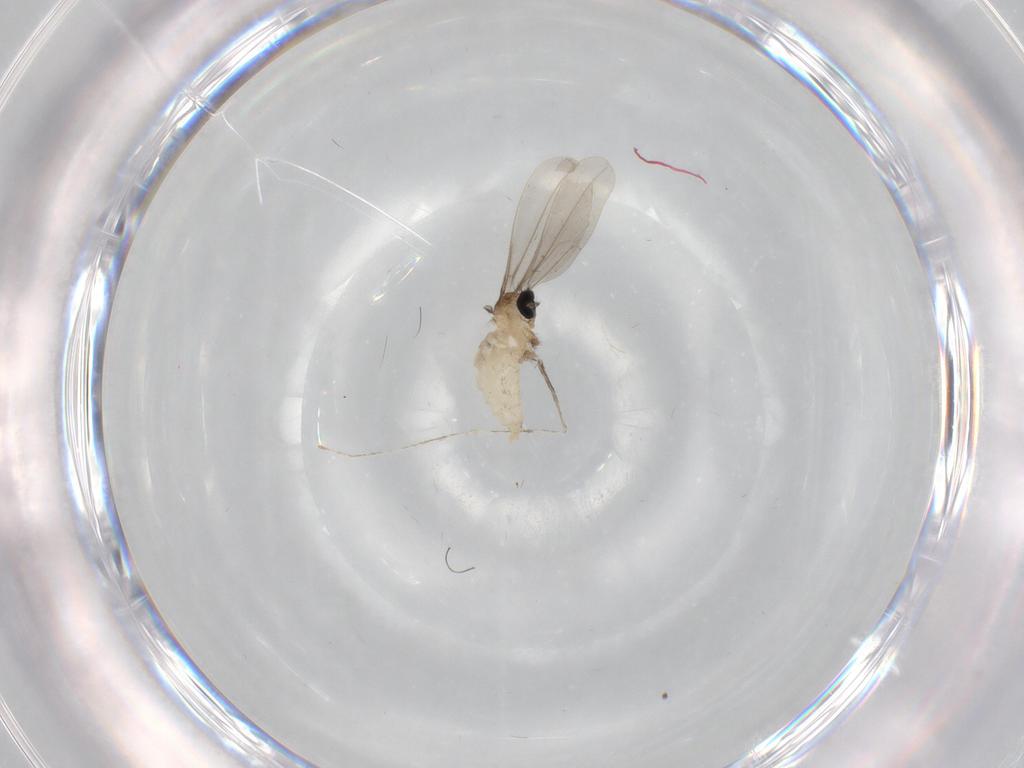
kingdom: Animalia
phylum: Arthropoda
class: Insecta
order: Diptera
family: Cecidomyiidae
